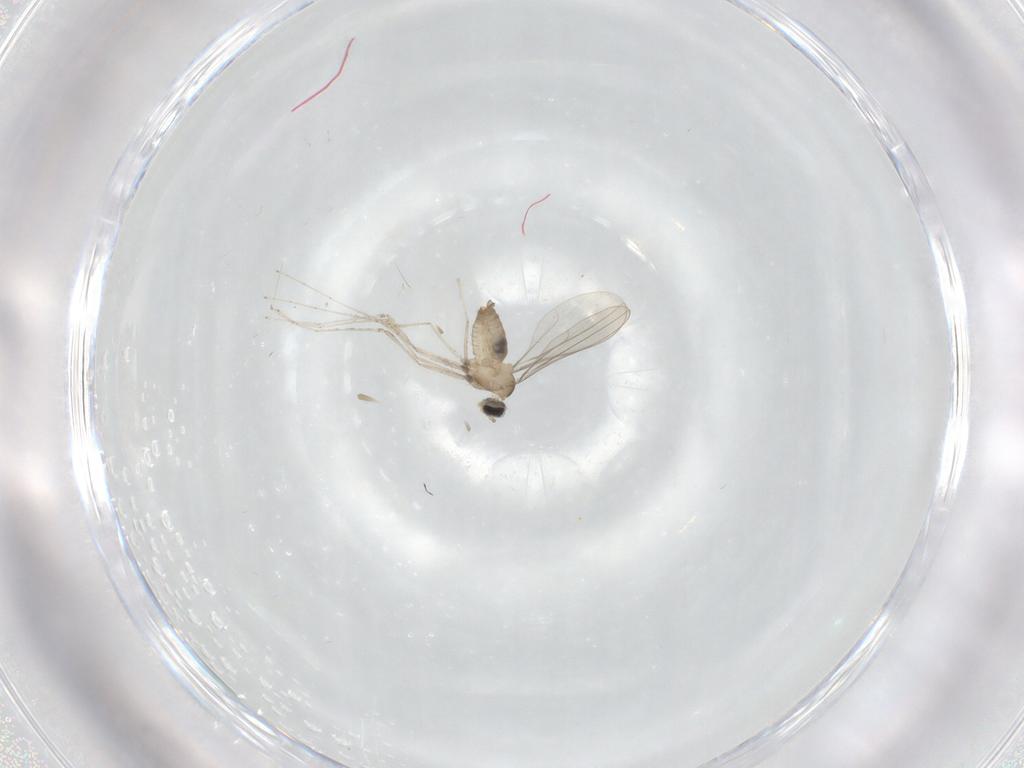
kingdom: Animalia
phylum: Arthropoda
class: Insecta
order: Diptera
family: Cecidomyiidae
